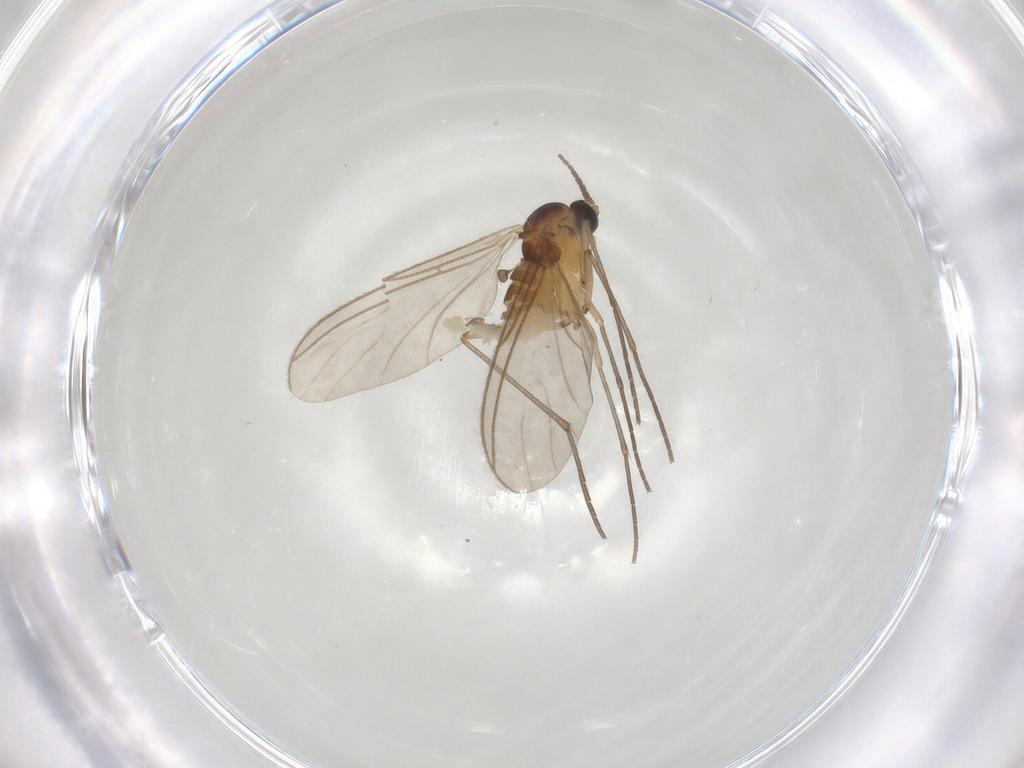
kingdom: Animalia
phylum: Arthropoda
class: Insecta
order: Diptera
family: Sciaridae
